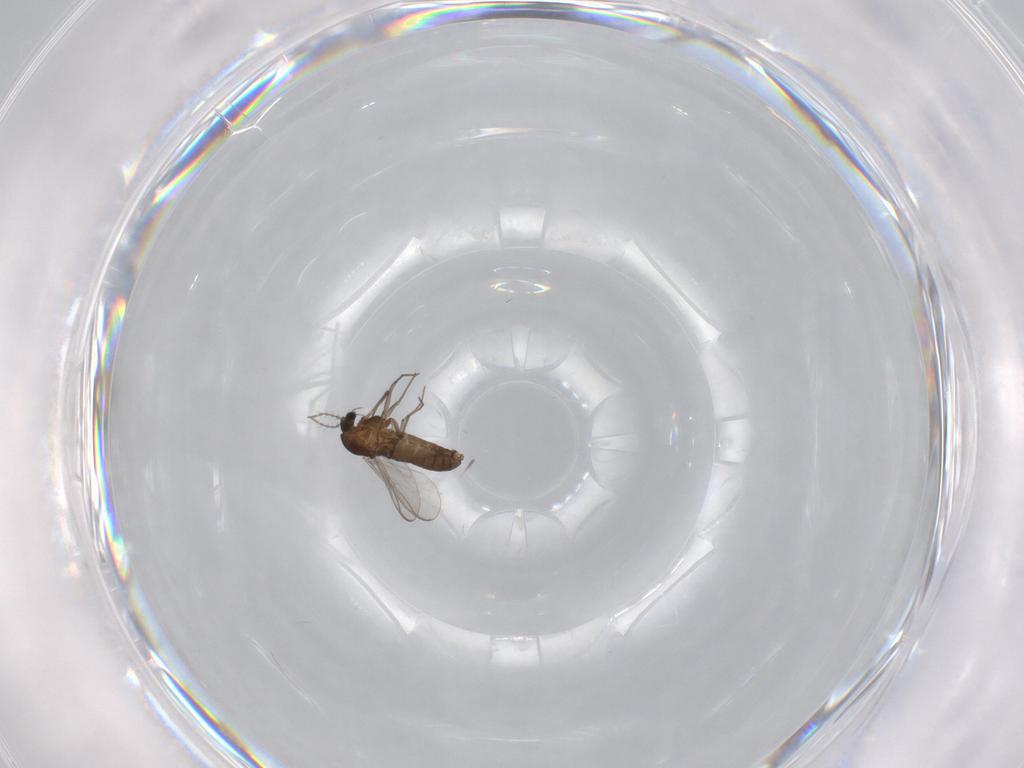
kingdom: Animalia
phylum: Arthropoda
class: Insecta
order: Diptera
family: Chironomidae
